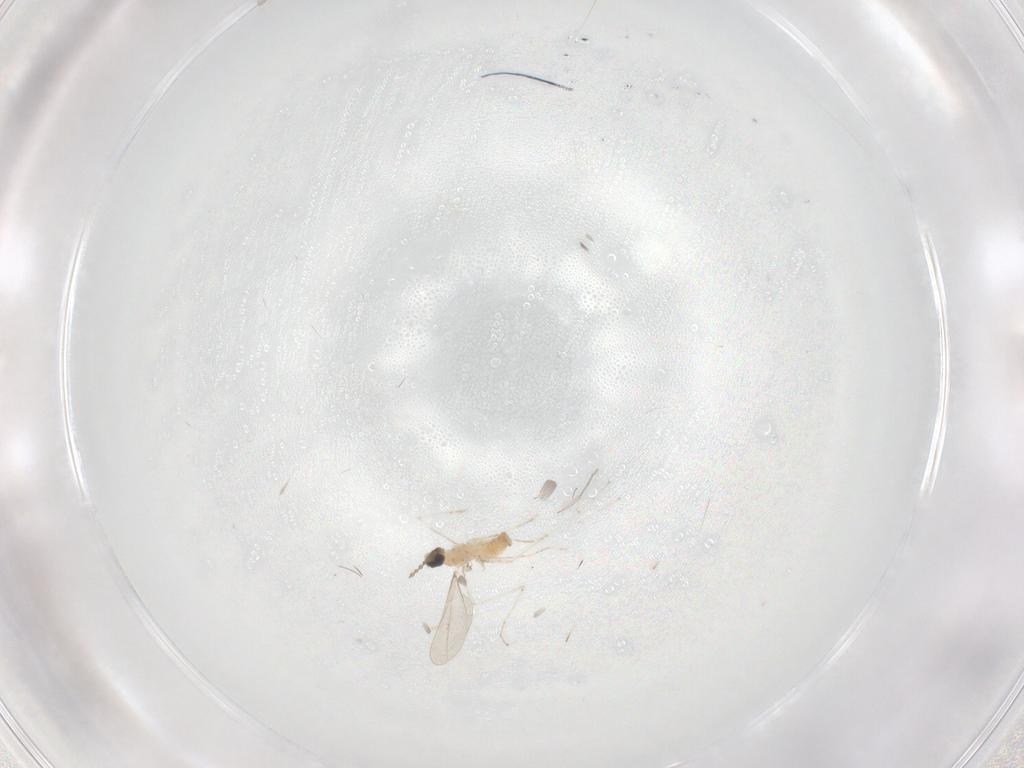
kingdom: Animalia
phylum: Arthropoda
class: Insecta
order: Diptera
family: Cecidomyiidae
